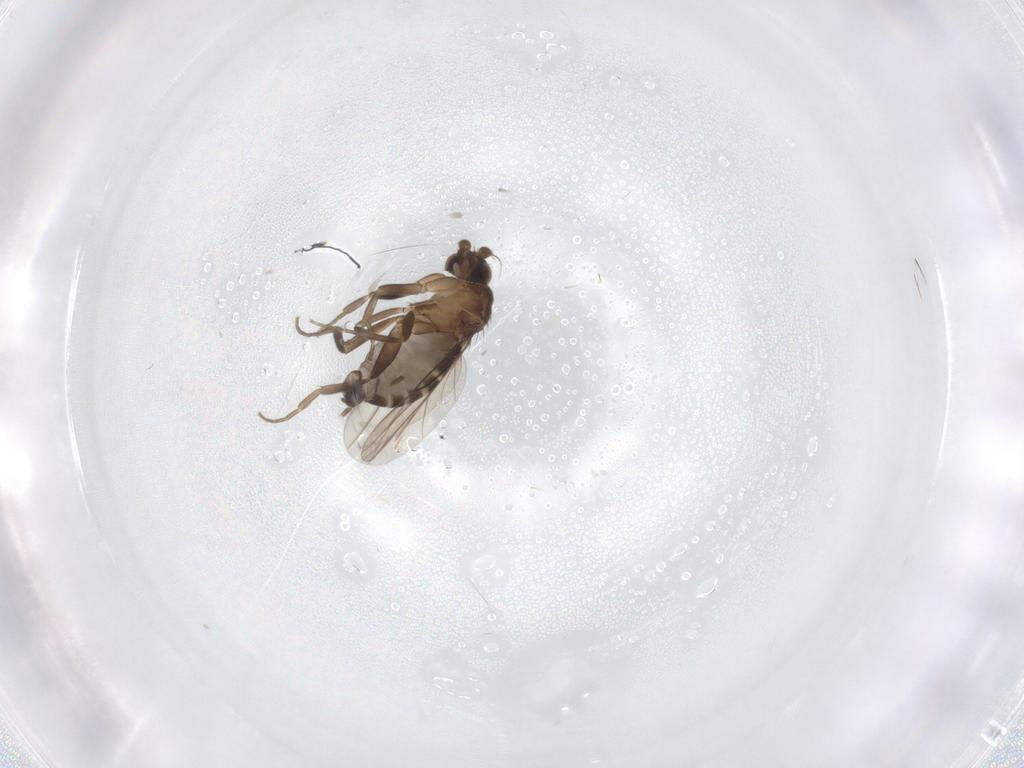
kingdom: Animalia
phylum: Arthropoda
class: Insecta
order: Diptera
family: Phoridae
